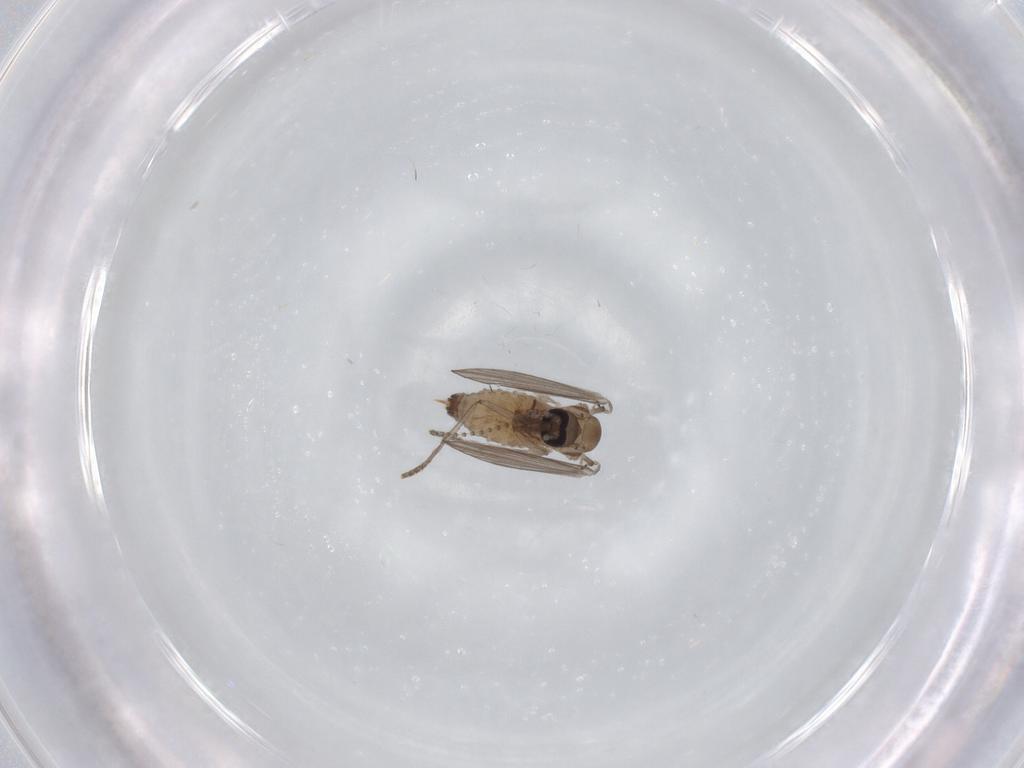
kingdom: Animalia
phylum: Arthropoda
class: Insecta
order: Diptera
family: Psychodidae
